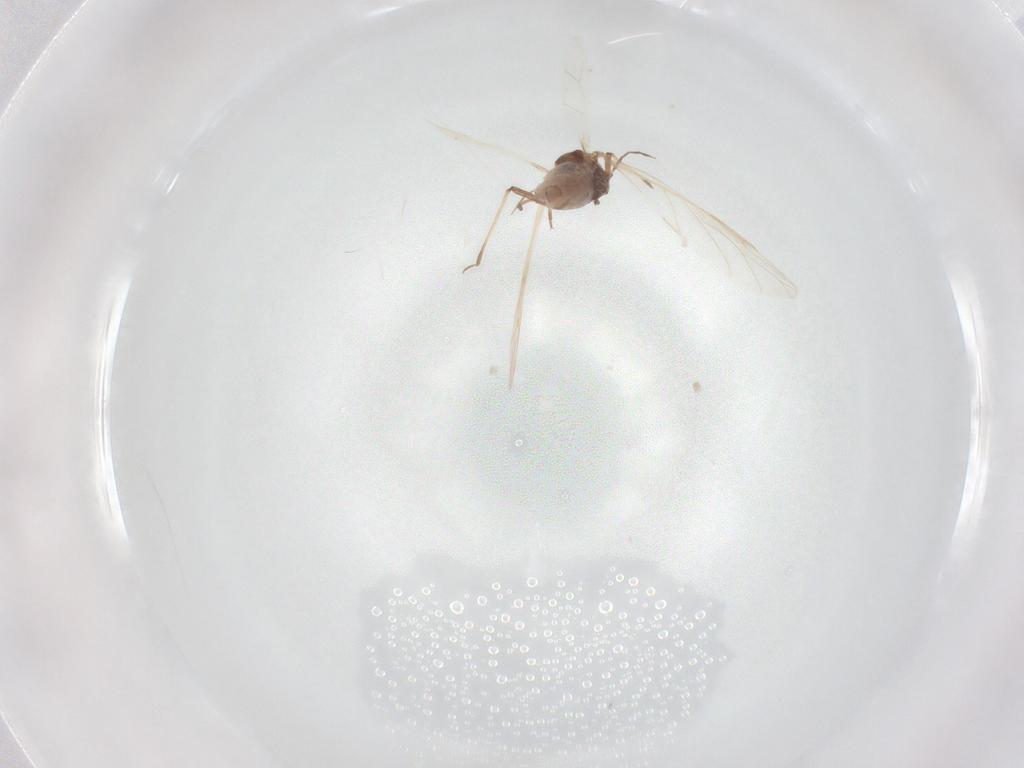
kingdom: Animalia
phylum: Arthropoda
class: Insecta
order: Hemiptera
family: Aphididae
